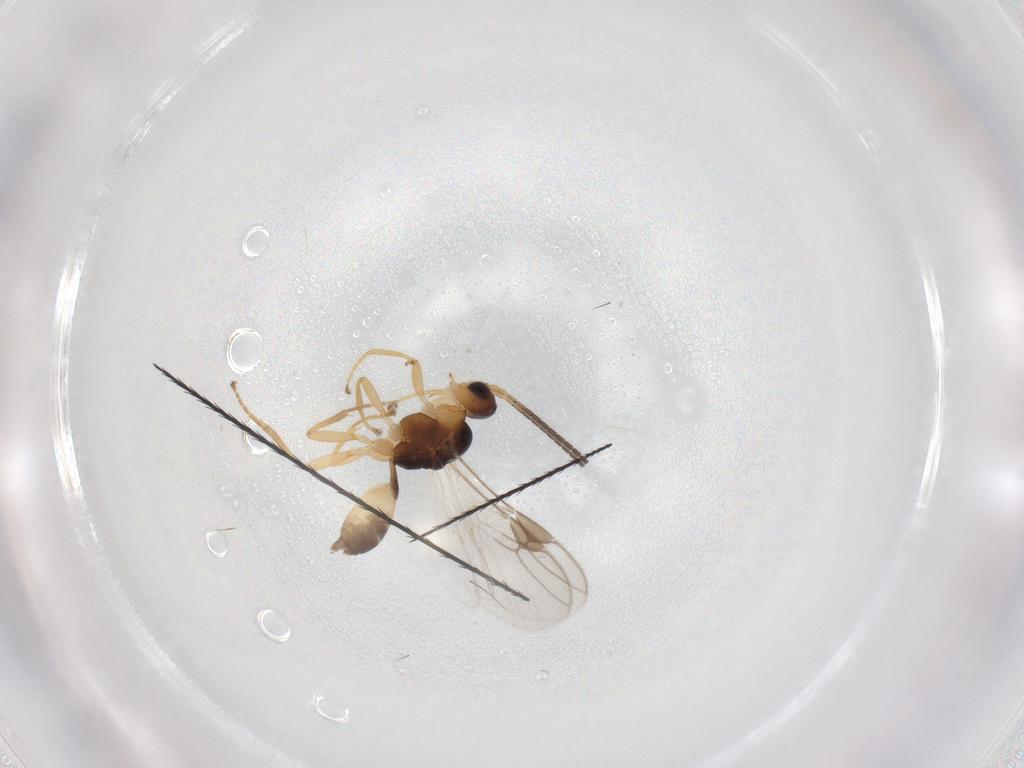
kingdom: Animalia
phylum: Arthropoda
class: Insecta
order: Hymenoptera
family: Braconidae
